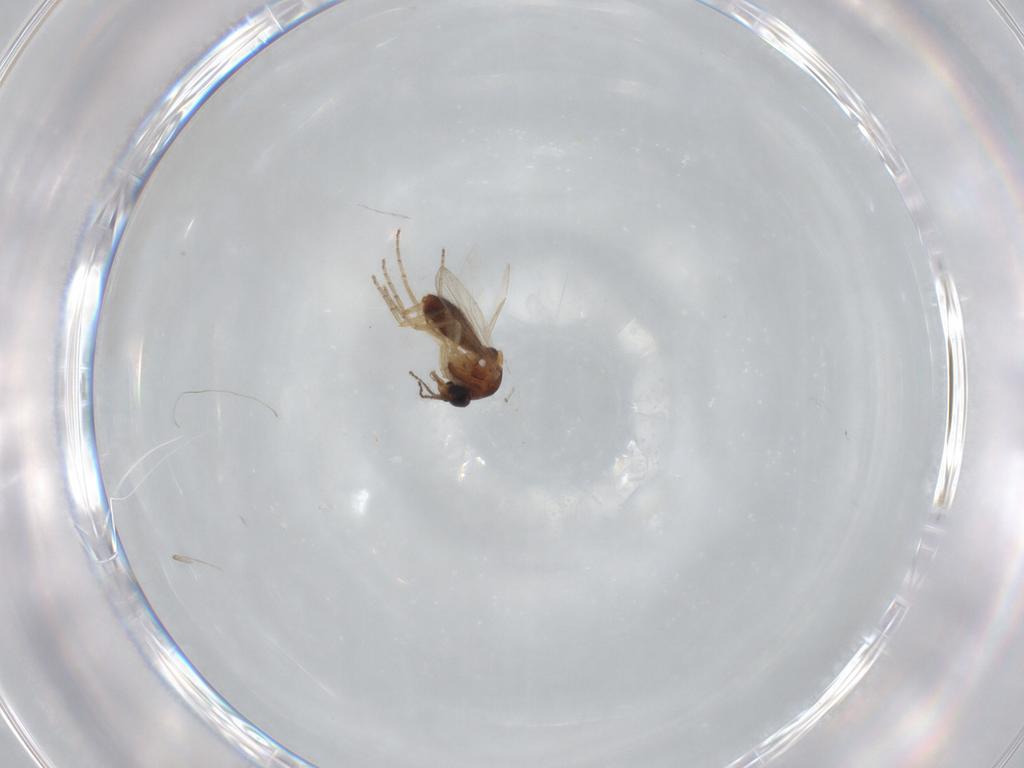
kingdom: Animalia
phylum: Arthropoda
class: Insecta
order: Diptera
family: Ceratopogonidae
